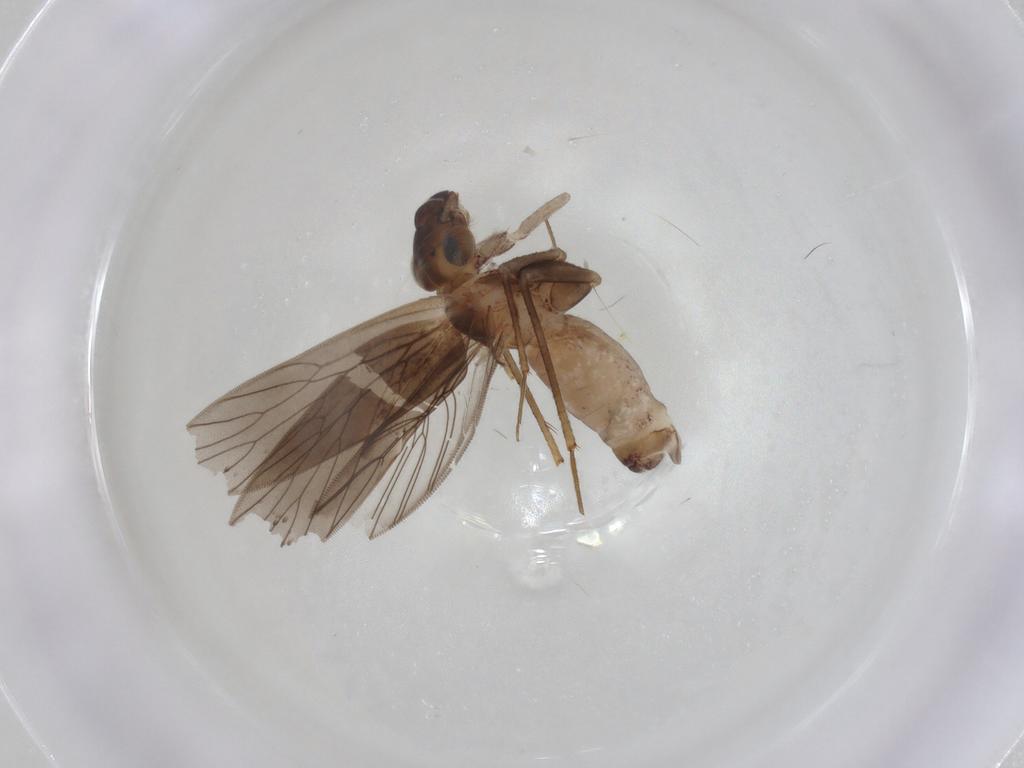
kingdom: Animalia
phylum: Arthropoda
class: Insecta
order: Psocodea
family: Lepidopsocidae
